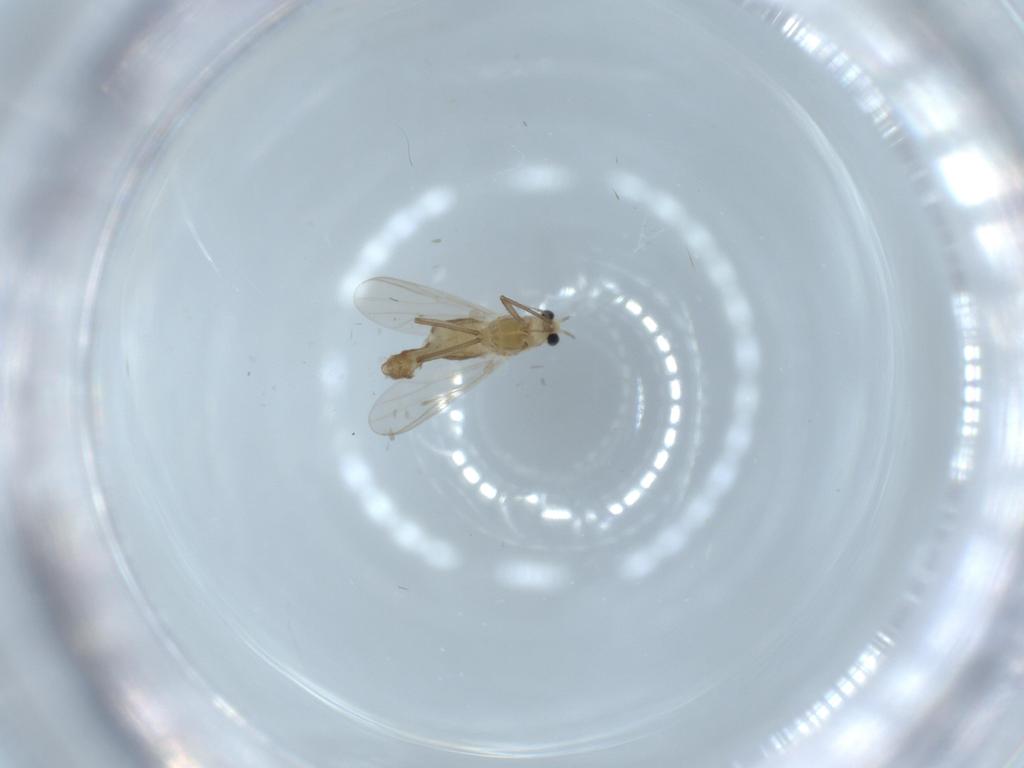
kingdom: Animalia
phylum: Arthropoda
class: Insecta
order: Diptera
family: Chironomidae
